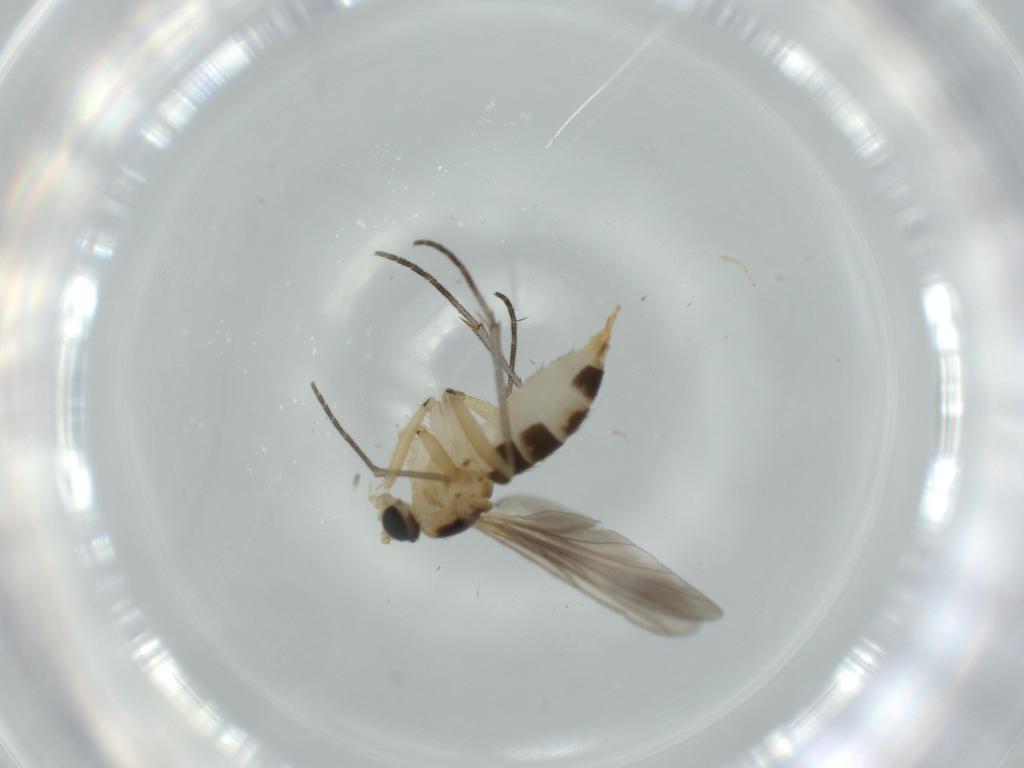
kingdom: Animalia
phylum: Arthropoda
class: Insecta
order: Diptera
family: Sciaridae
